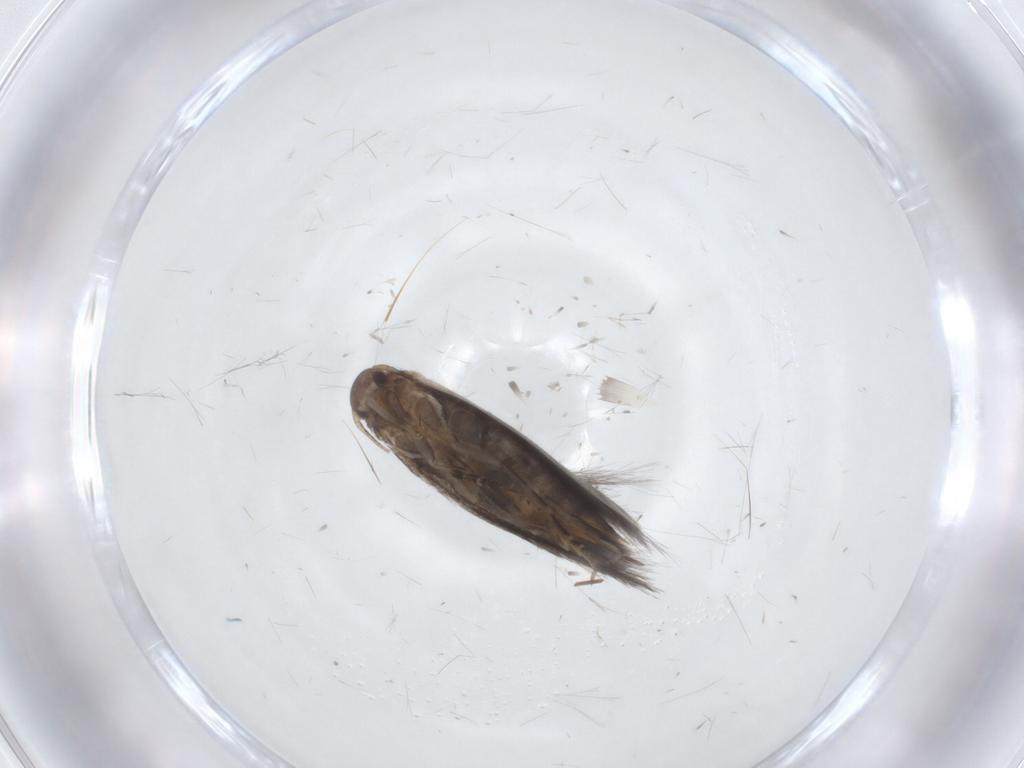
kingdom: Animalia
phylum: Arthropoda
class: Insecta
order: Lepidoptera
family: Elachistidae
